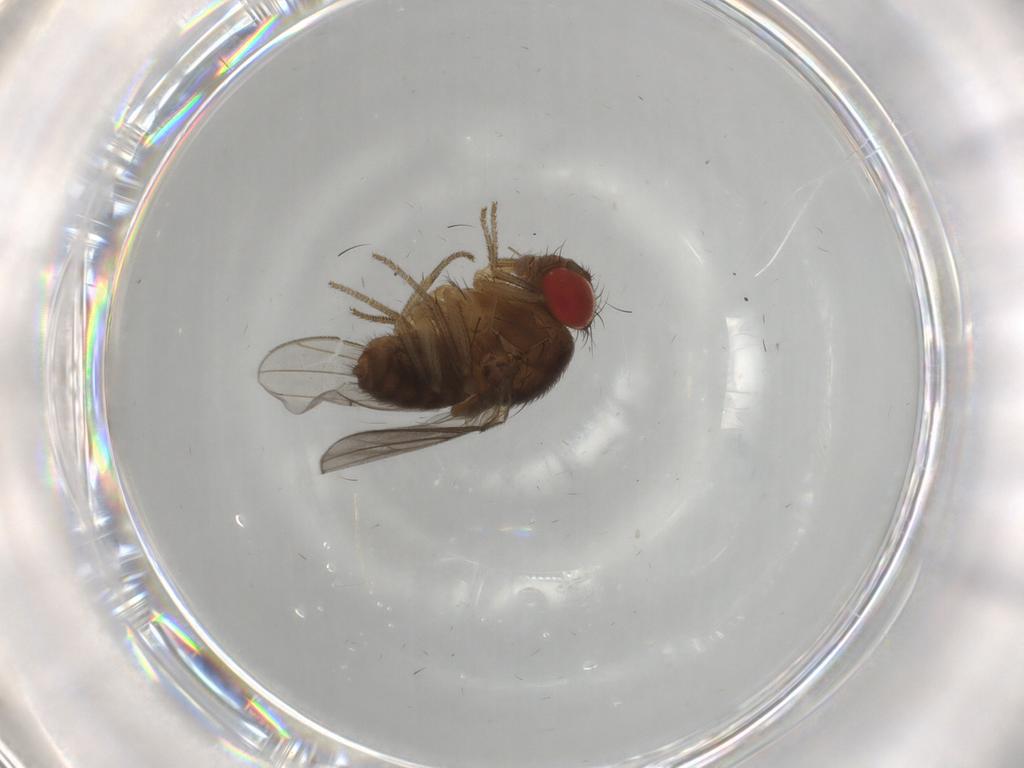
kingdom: Animalia
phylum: Arthropoda
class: Insecta
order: Diptera
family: Drosophilidae
